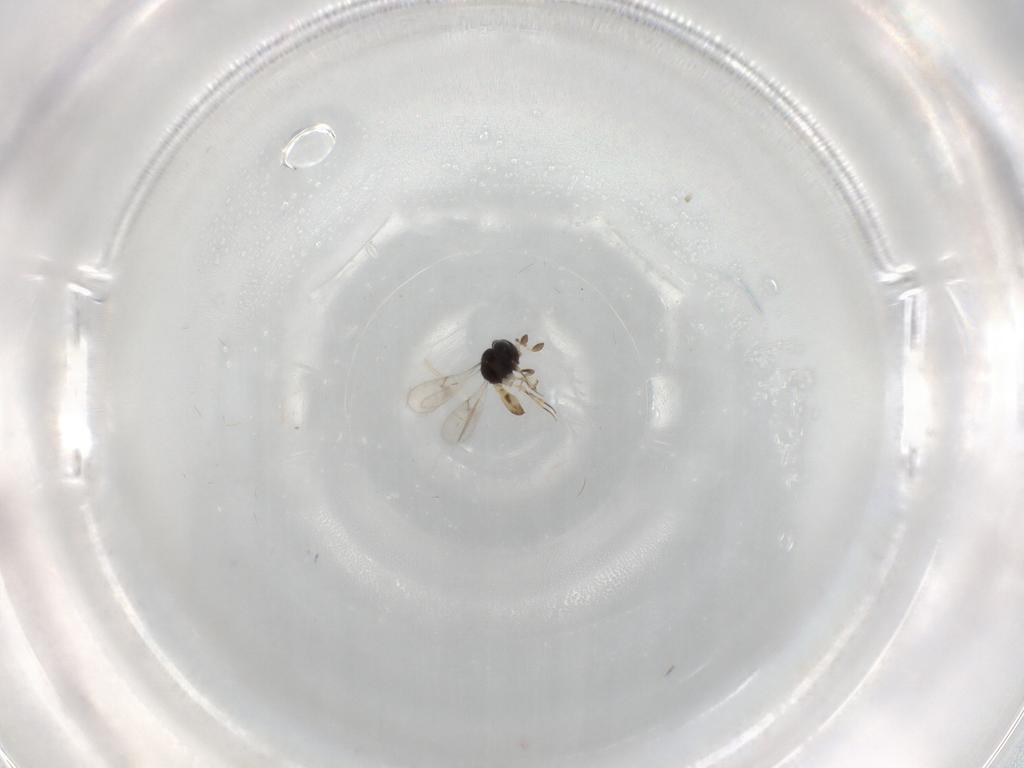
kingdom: Animalia
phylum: Arthropoda
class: Insecta
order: Hymenoptera
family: Scelionidae
